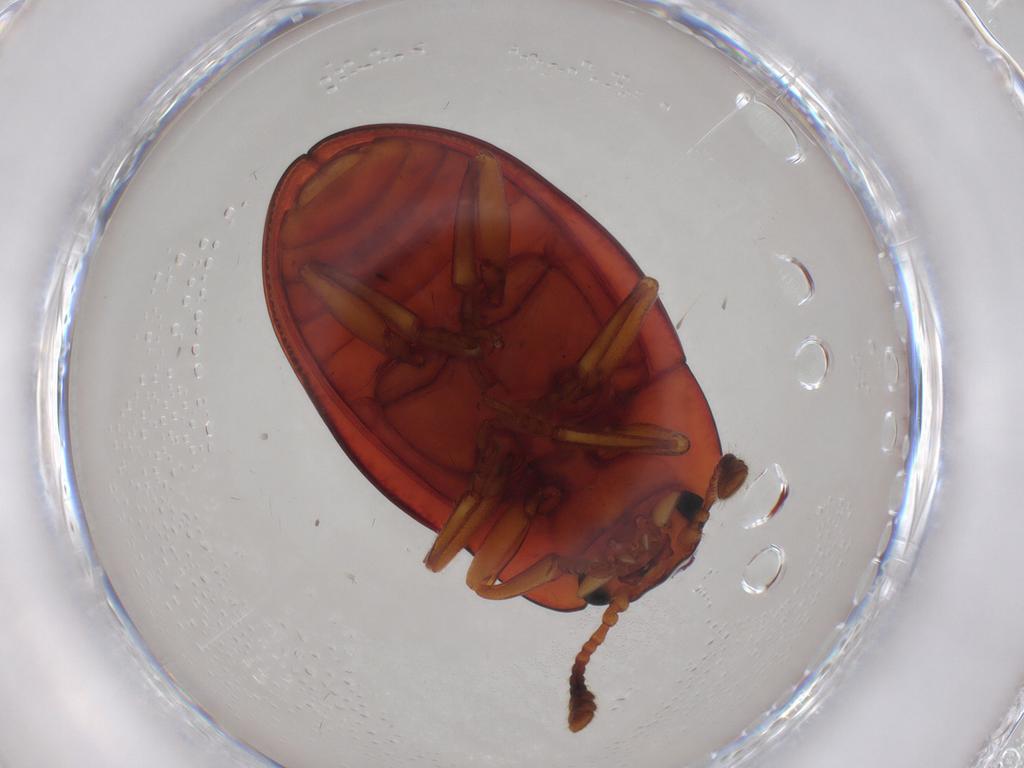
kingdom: Animalia
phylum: Arthropoda
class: Insecta
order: Coleoptera
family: Erotylidae
